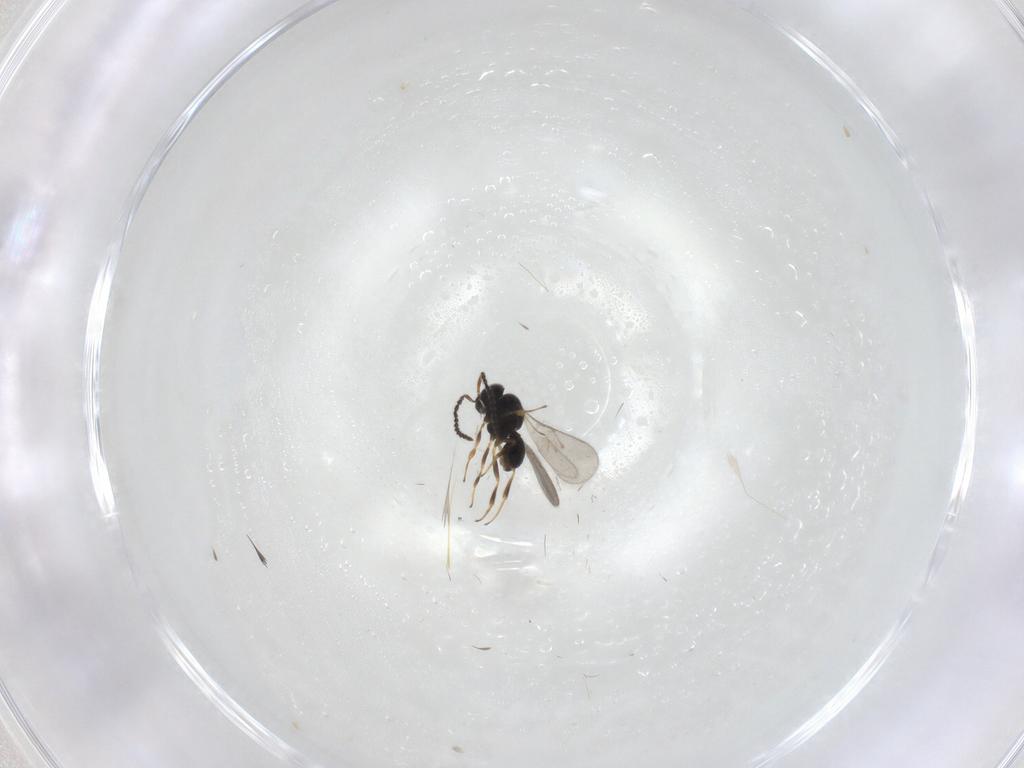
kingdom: Animalia
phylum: Arthropoda
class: Insecta
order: Hymenoptera
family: Scelionidae
